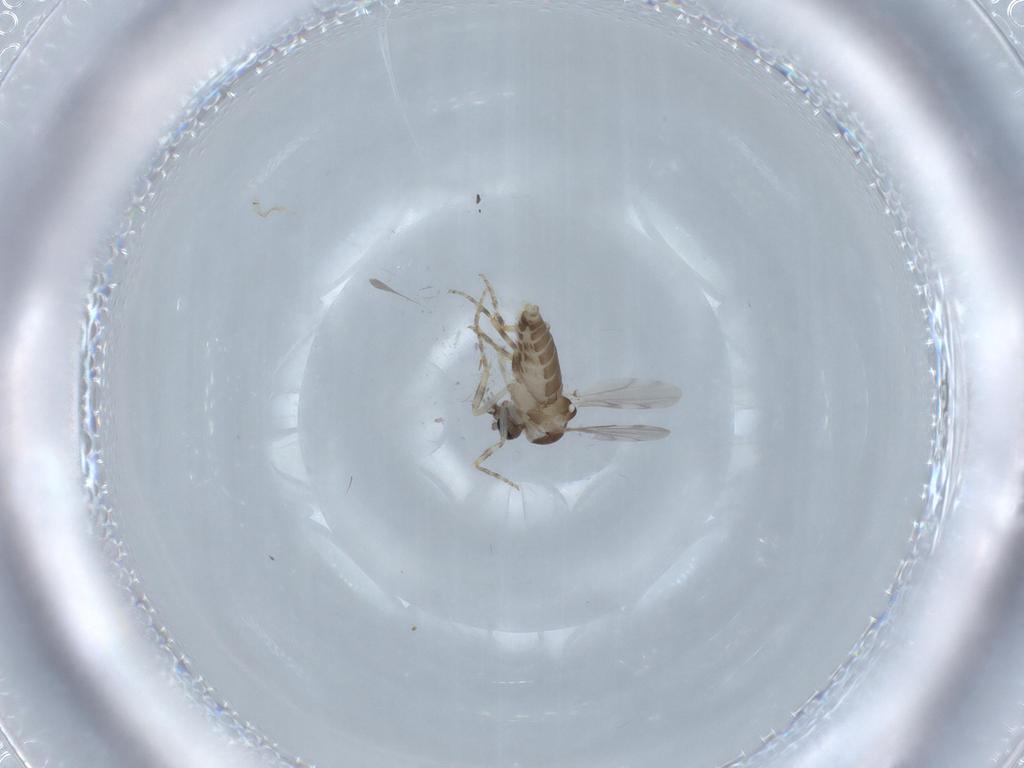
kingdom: Animalia
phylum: Arthropoda
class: Insecta
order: Diptera
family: Ceratopogonidae
